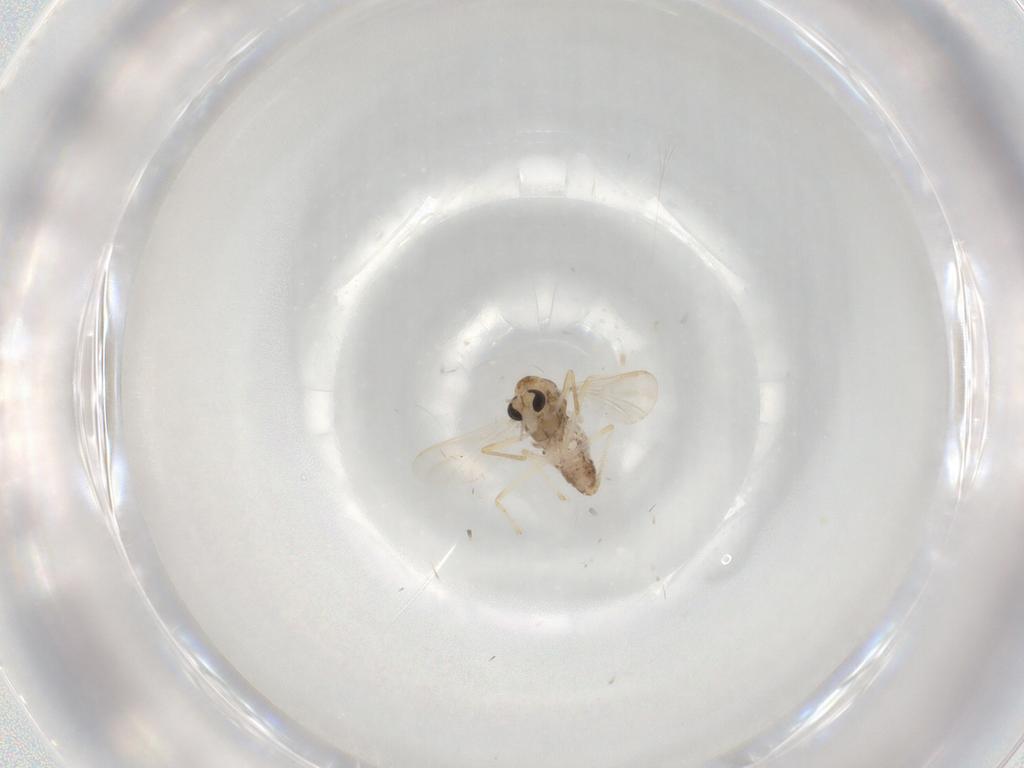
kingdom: Animalia
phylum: Arthropoda
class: Insecta
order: Diptera
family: Chironomidae
